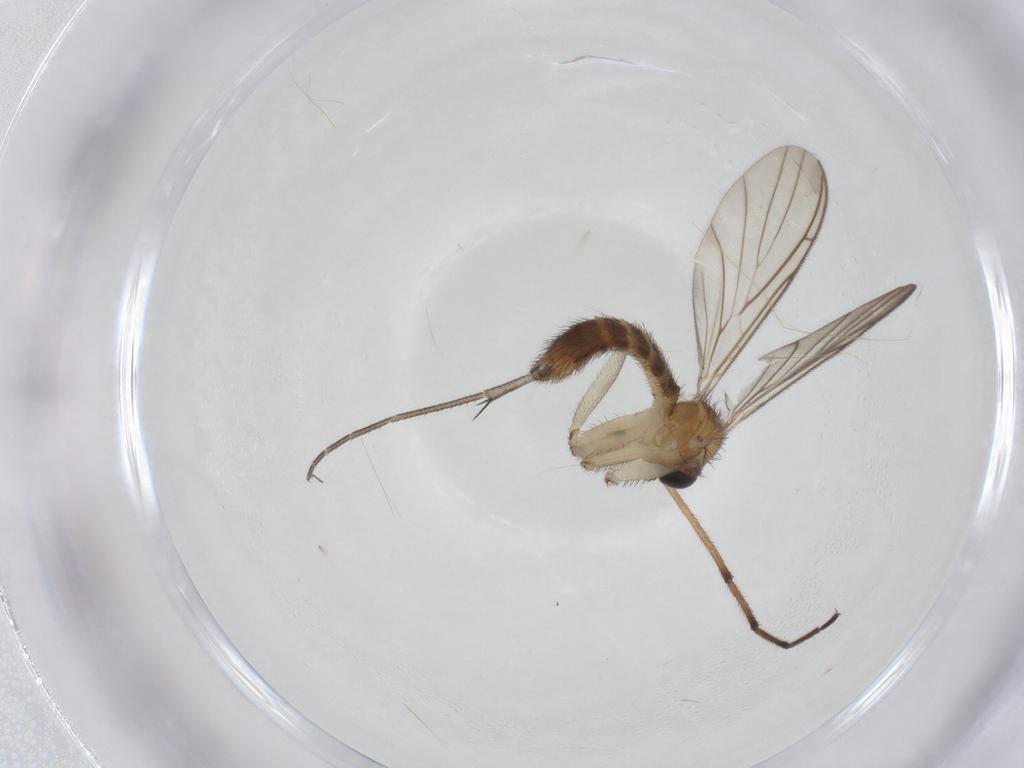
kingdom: Animalia
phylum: Arthropoda
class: Insecta
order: Diptera
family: Keroplatidae
